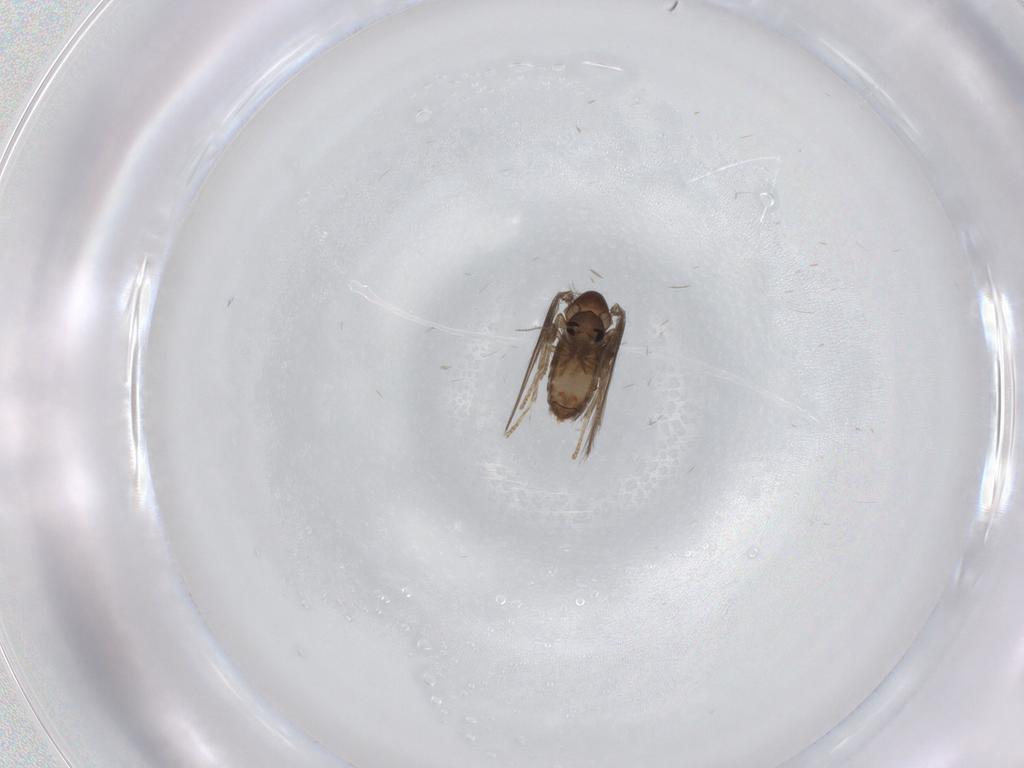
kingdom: Animalia
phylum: Arthropoda
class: Insecta
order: Diptera
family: Psychodidae
